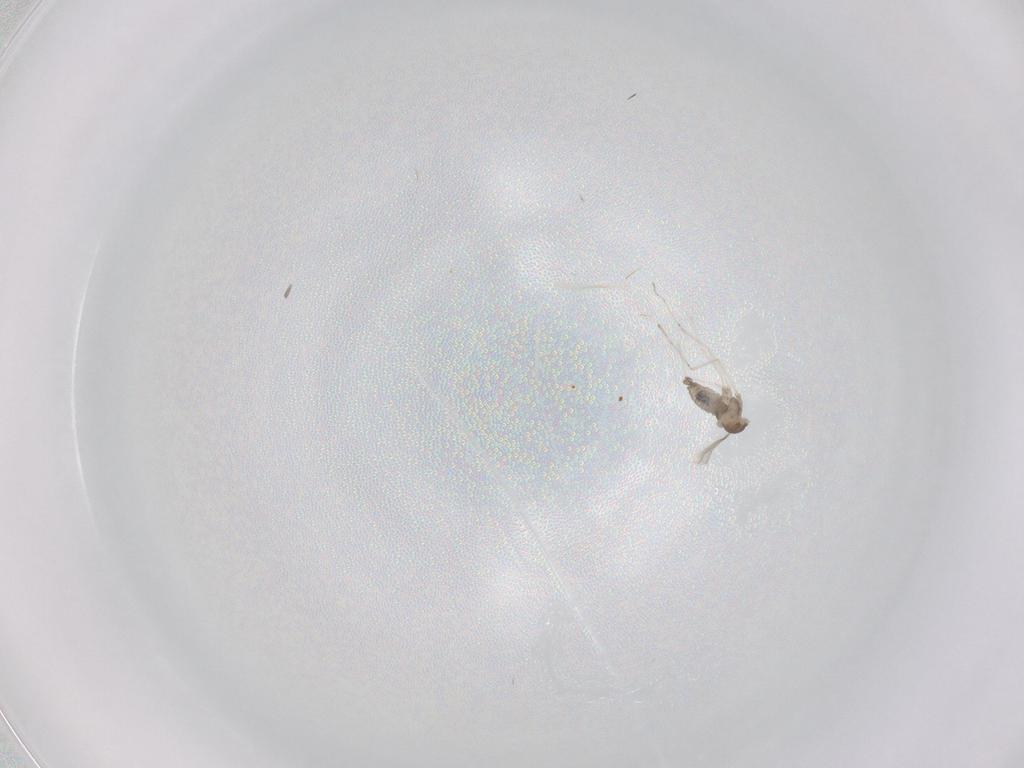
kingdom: Animalia
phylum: Arthropoda
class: Insecta
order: Diptera
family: Cecidomyiidae
